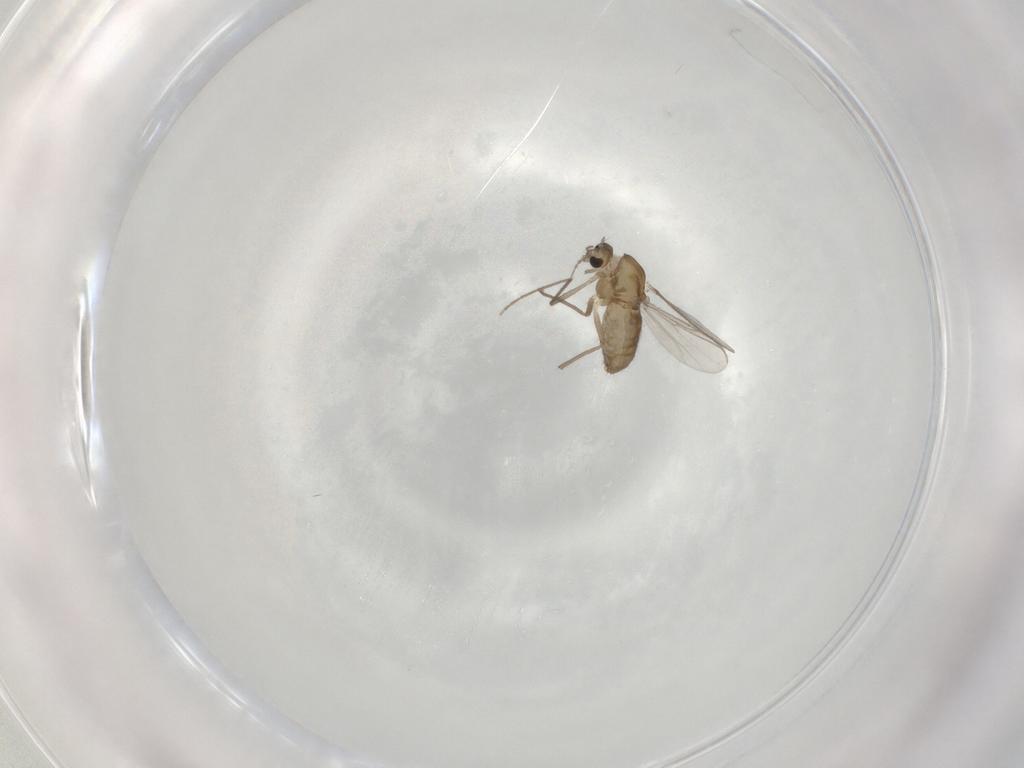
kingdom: Animalia
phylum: Arthropoda
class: Insecta
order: Diptera
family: Chironomidae
